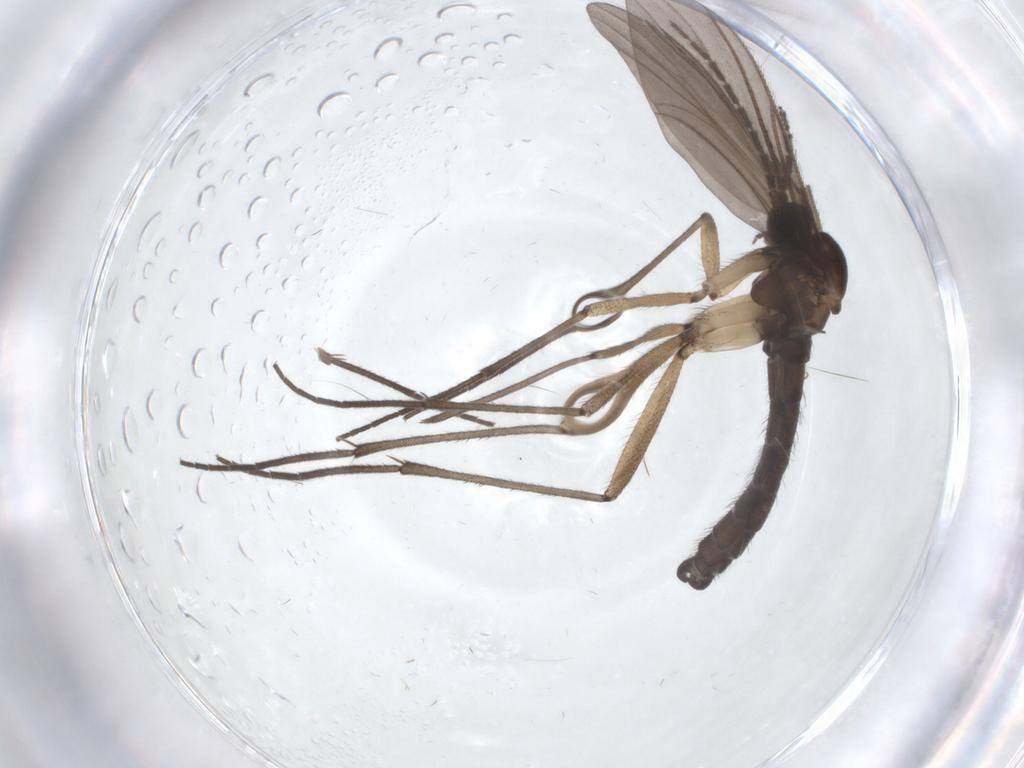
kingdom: Animalia
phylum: Arthropoda
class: Insecta
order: Diptera
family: Sciaridae
